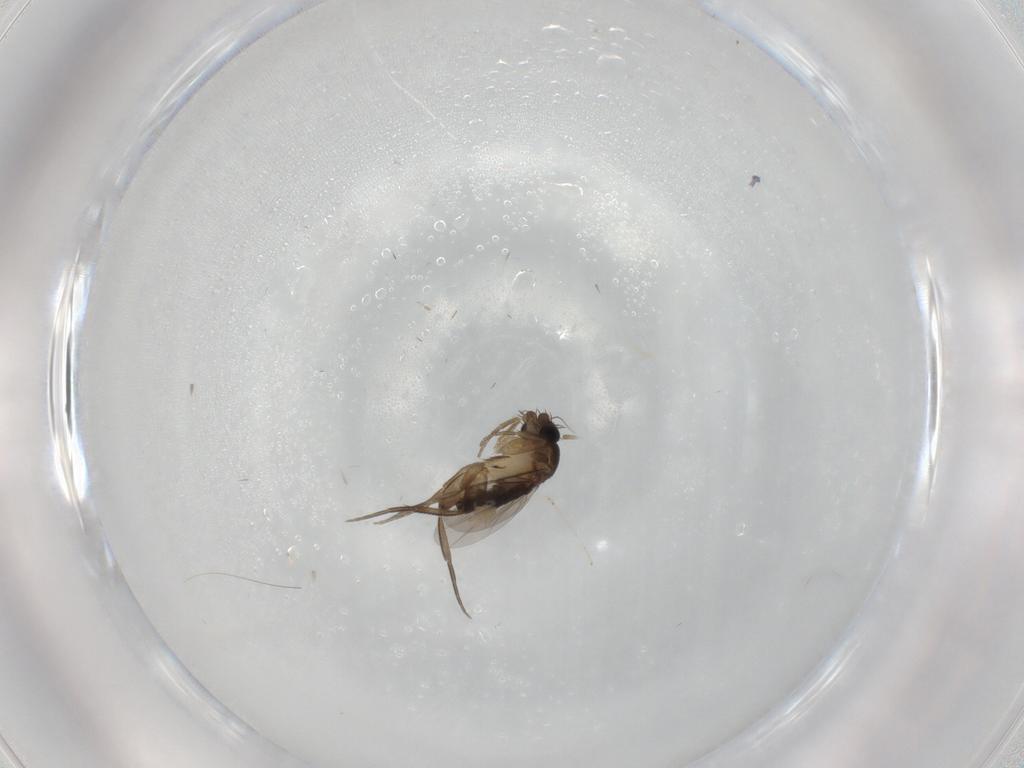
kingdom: Animalia
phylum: Arthropoda
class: Insecta
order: Diptera
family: Phoridae
